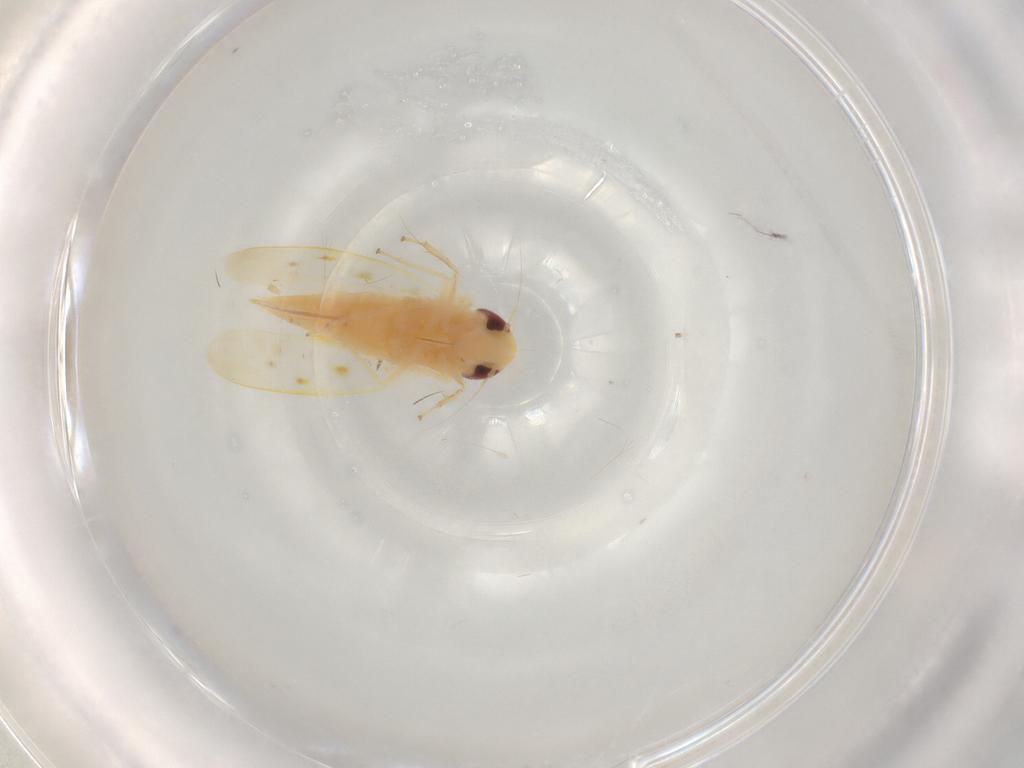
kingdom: Animalia
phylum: Arthropoda
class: Insecta
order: Hemiptera
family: Cicadellidae
